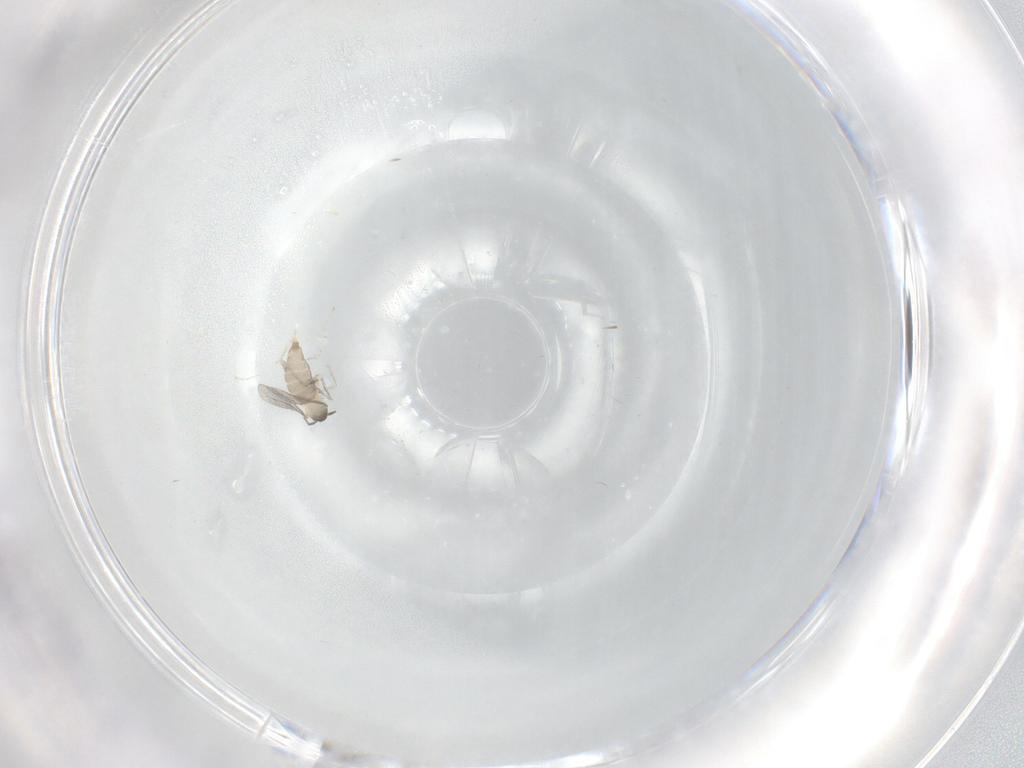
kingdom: Animalia
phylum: Arthropoda
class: Insecta
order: Diptera
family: Cecidomyiidae
